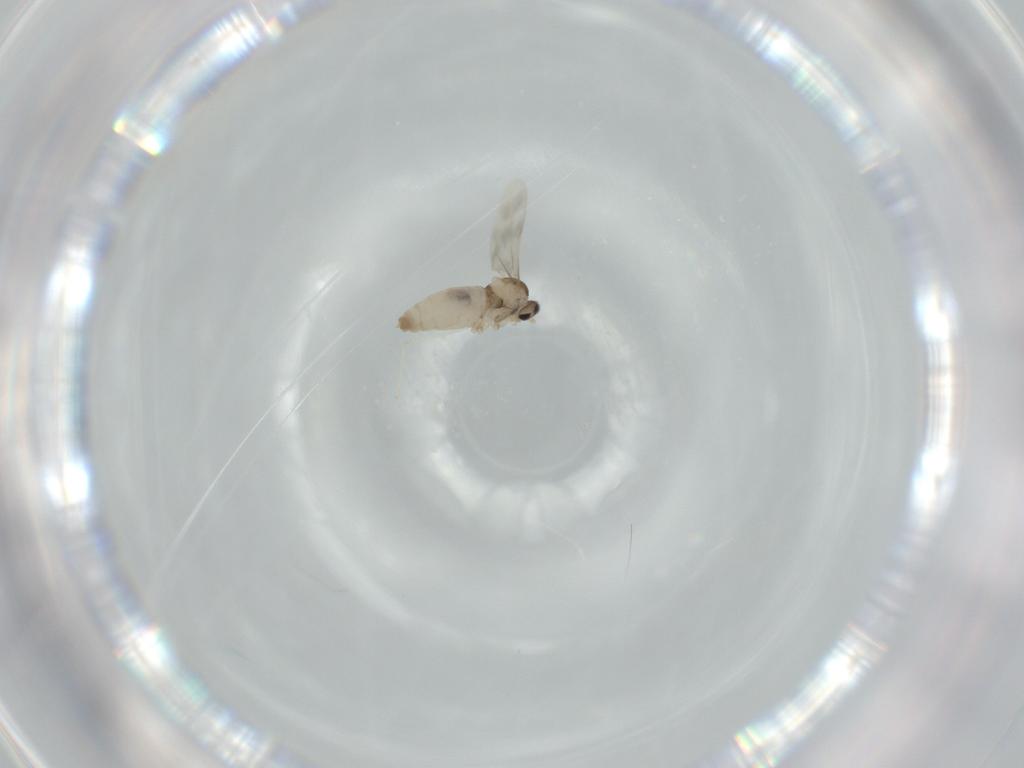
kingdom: Animalia
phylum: Arthropoda
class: Insecta
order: Diptera
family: Cecidomyiidae
